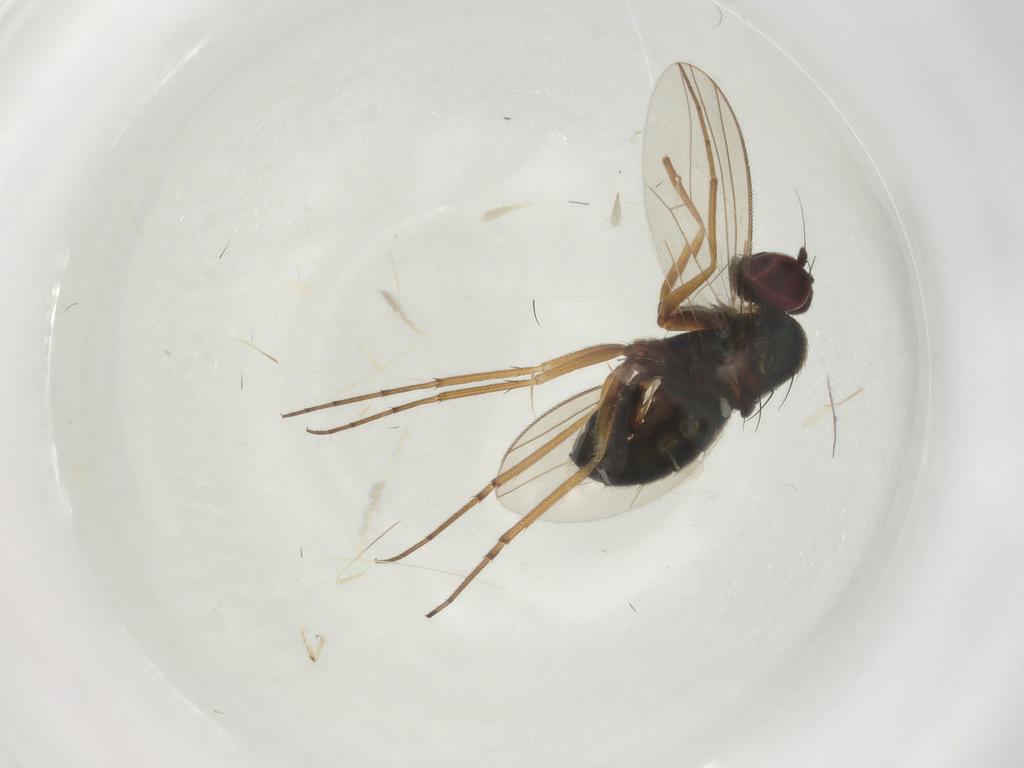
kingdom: Animalia
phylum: Arthropoda
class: Insecta
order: Diptera
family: Dolichopodidae
